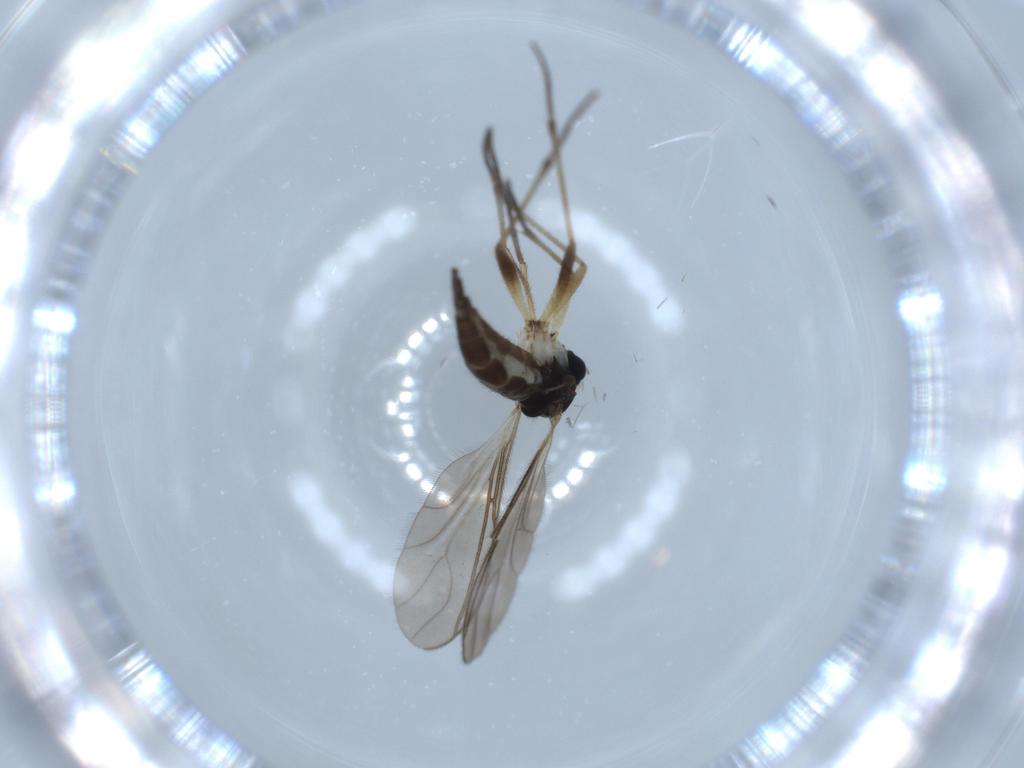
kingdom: Animalia
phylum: Arthropoda
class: Insecta
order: Diptera
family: Sciaridae
